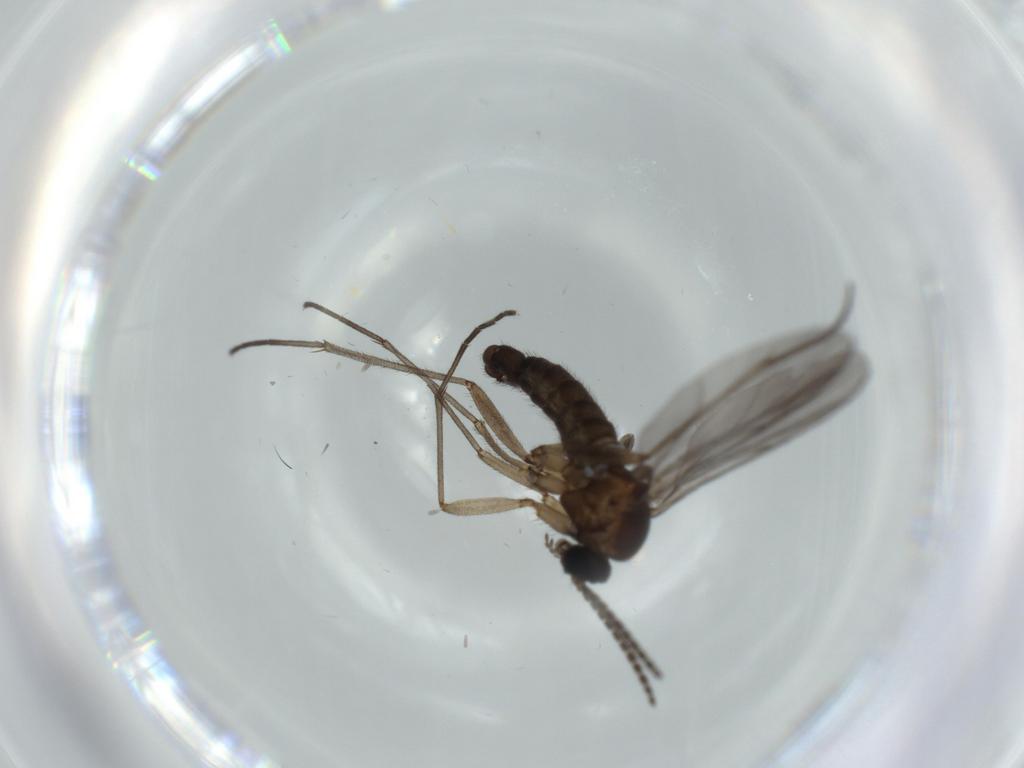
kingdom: Animalia
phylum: Arthropoda
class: Insecta
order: Diptera
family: Sciaridae
